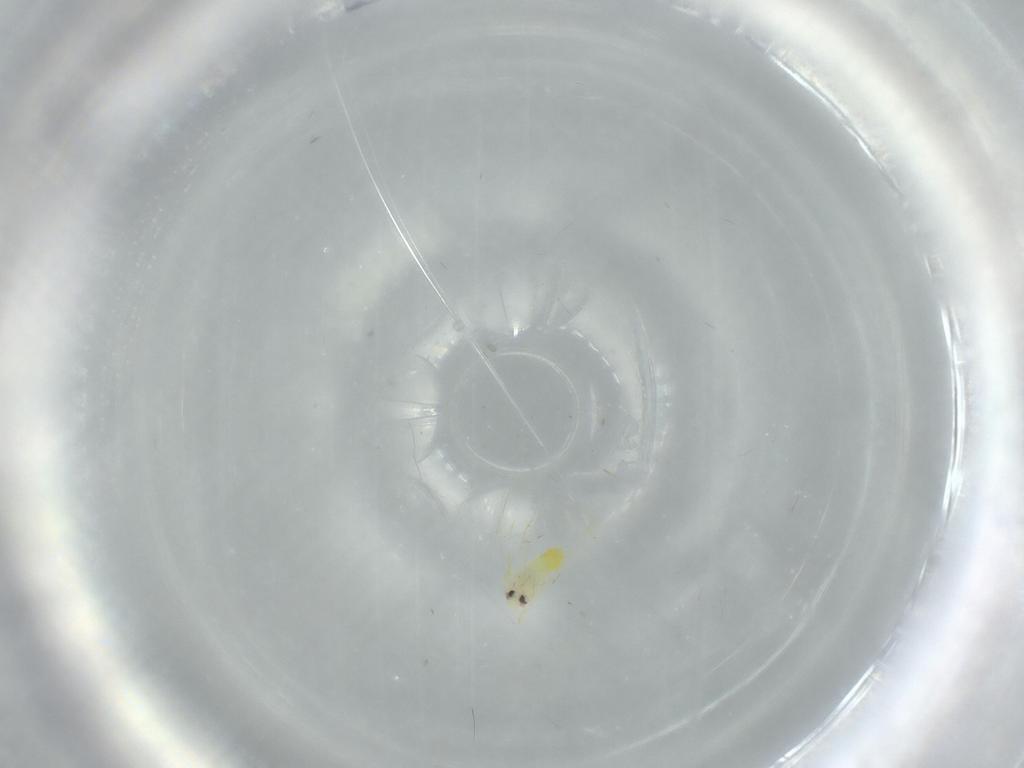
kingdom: Animalia
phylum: Arthropoda
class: Insecta
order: Hemiptera
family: Aleyrodidae
